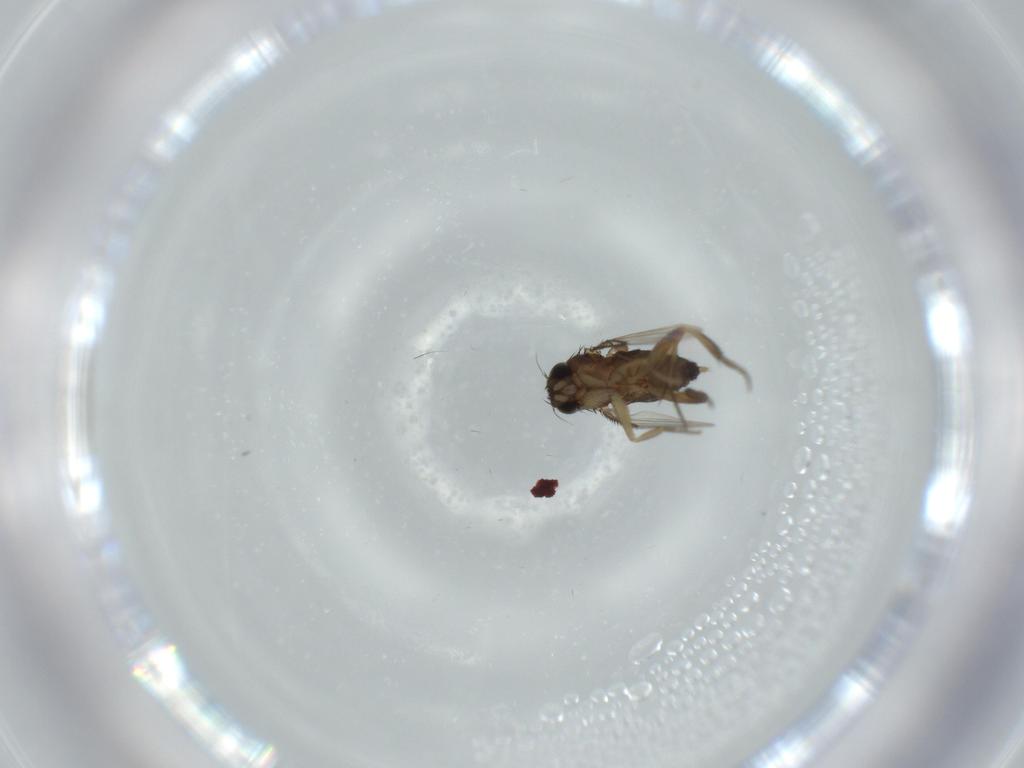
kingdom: Animalia
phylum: Arthropoda
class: Insecta
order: Diptera
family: Phoridae
